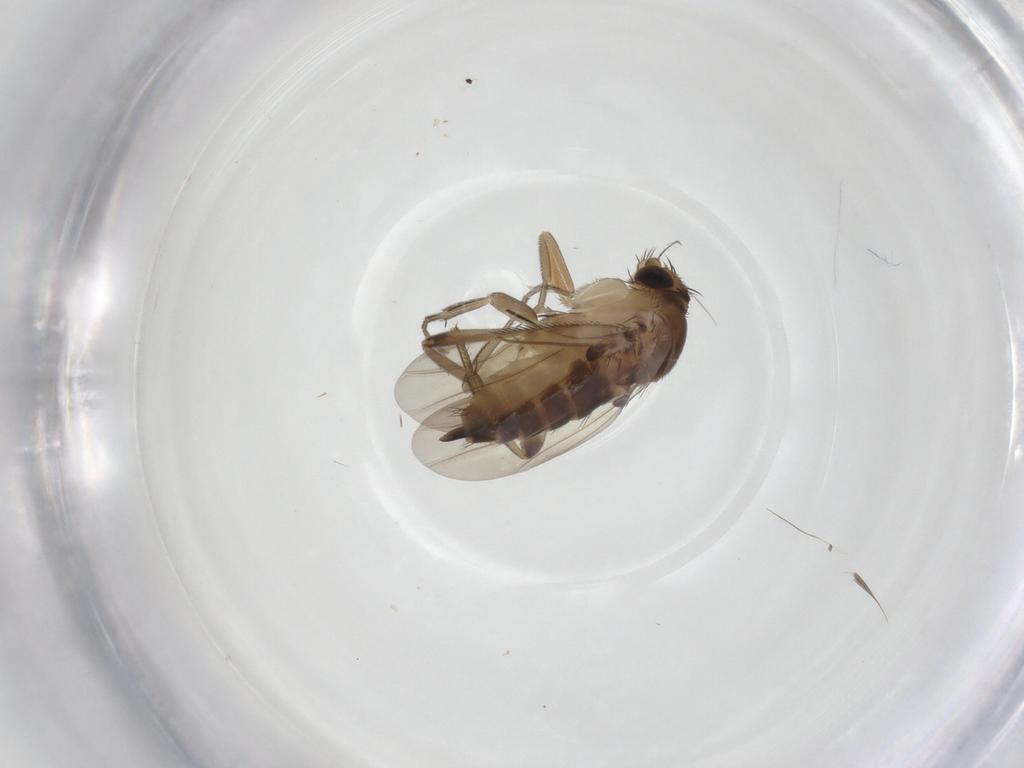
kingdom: Animalia
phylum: Arthropoda
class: Insecta
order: Diptera
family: Phoridae
